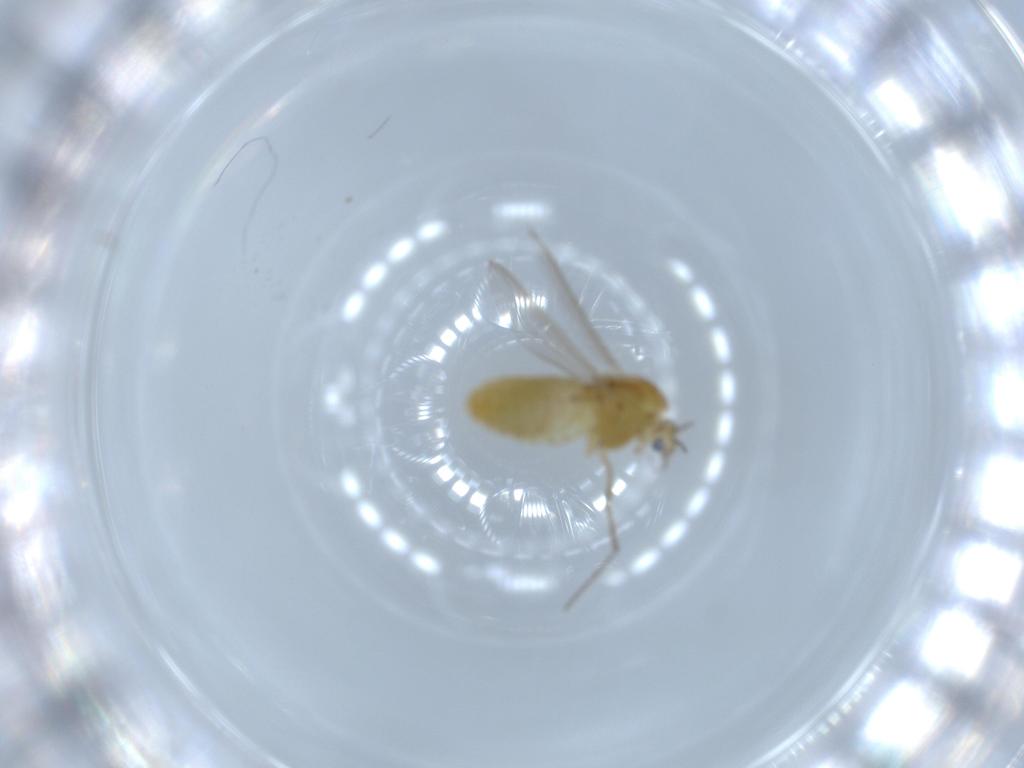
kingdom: Animalia
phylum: Arthropoda
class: Insecta
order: Diptera
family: Chironomidae
